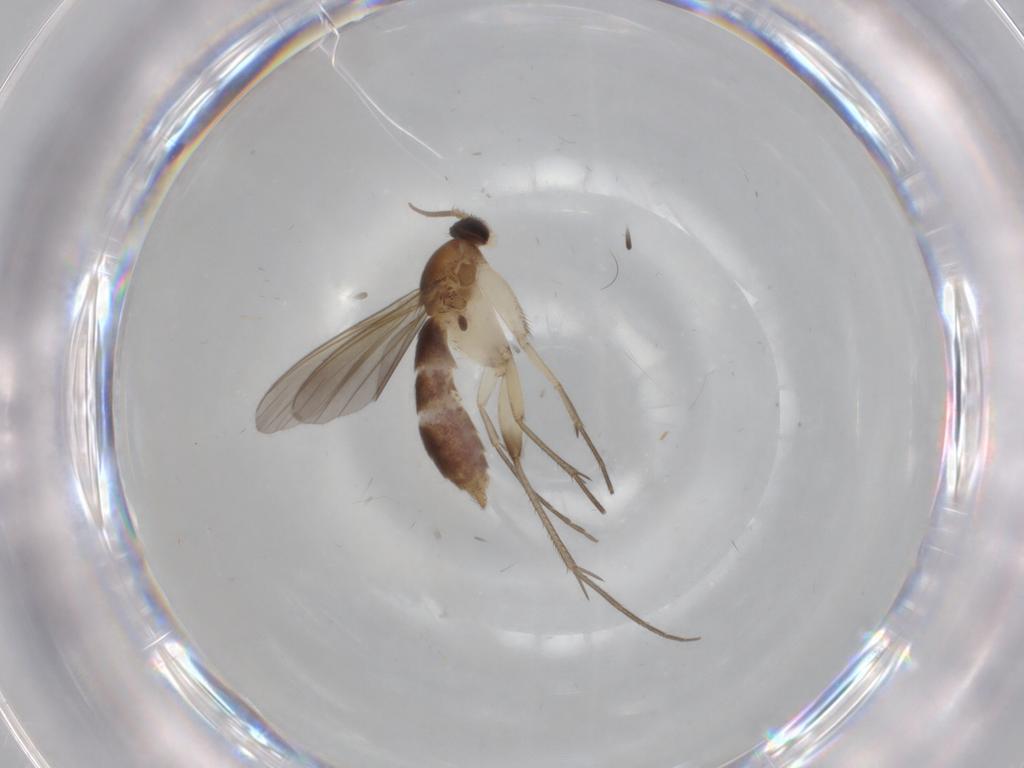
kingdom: Animalia
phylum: Arthropoda
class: Insecta
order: Diptera
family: Mycetophilidae
